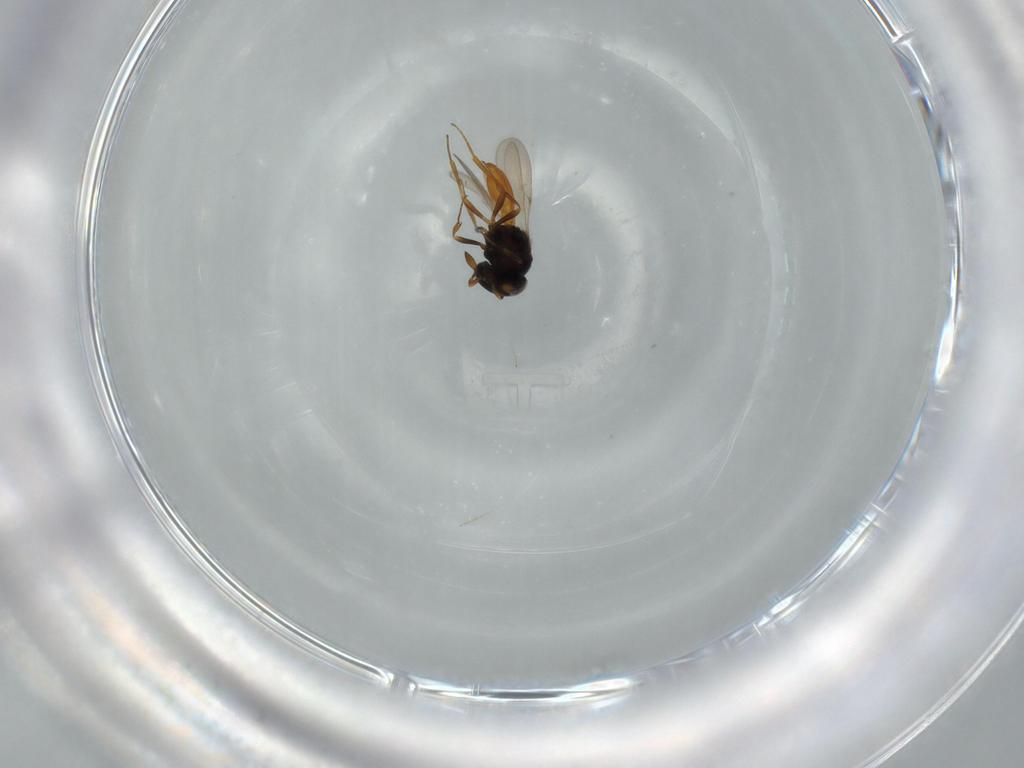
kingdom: Animalia
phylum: Arthropoda
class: Insecta
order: Hymenoptera
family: Scelionidae
